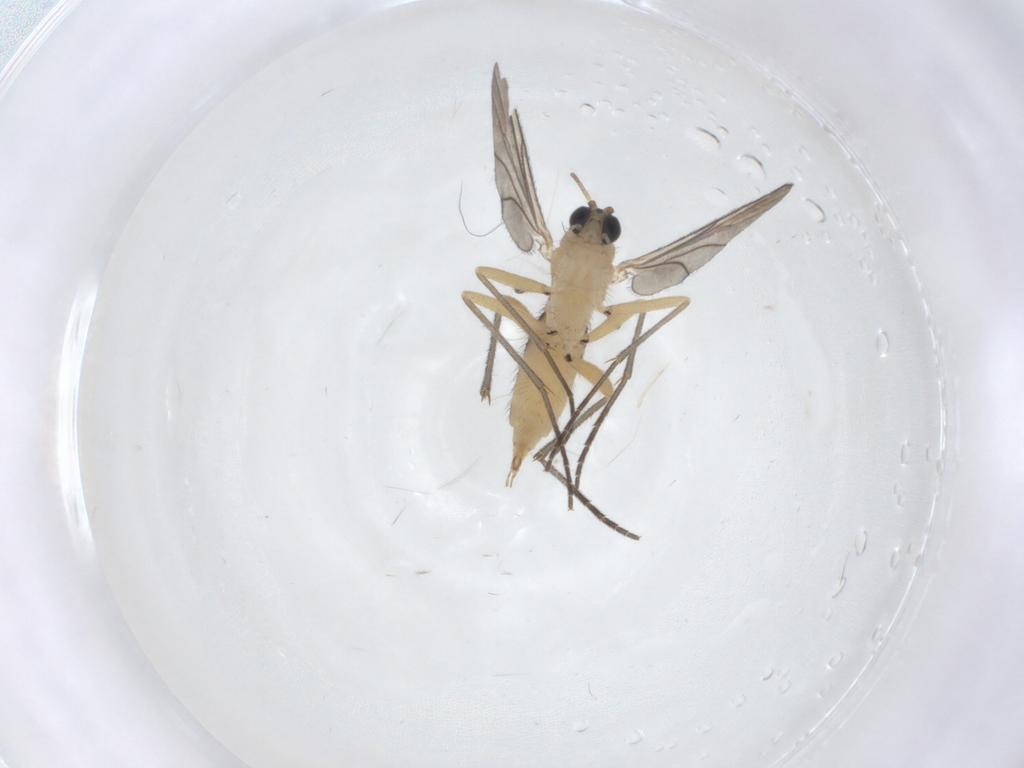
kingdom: Animalia
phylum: Arthropoda
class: Insecta
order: Diptera
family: Sciaridae
